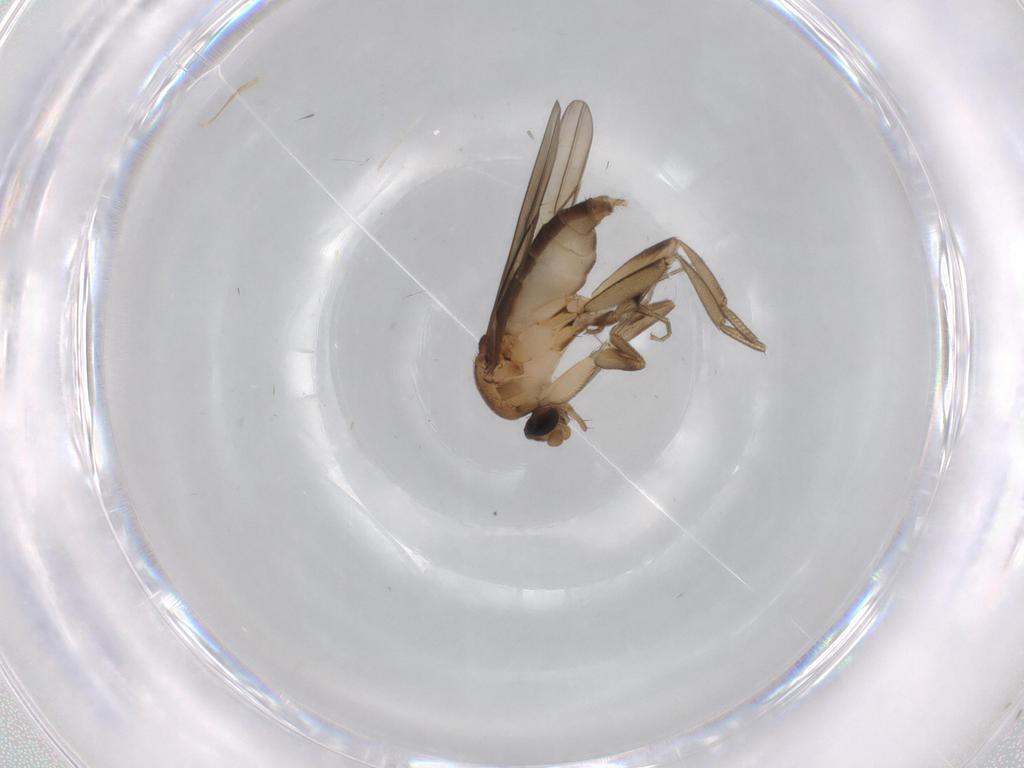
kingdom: Animalia
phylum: Arthropoda
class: Insecta
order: Diptera
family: Phoridae
